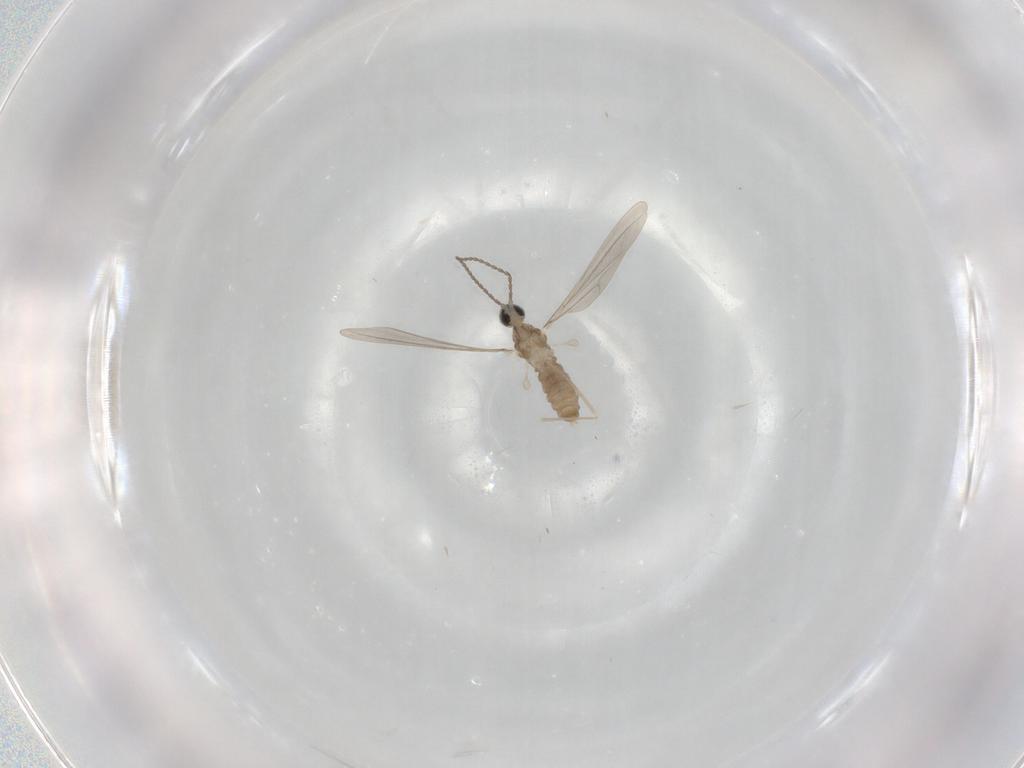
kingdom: Animalia
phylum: Arthropoda
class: Insecta
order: Diptera
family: Cecidomyiidae
